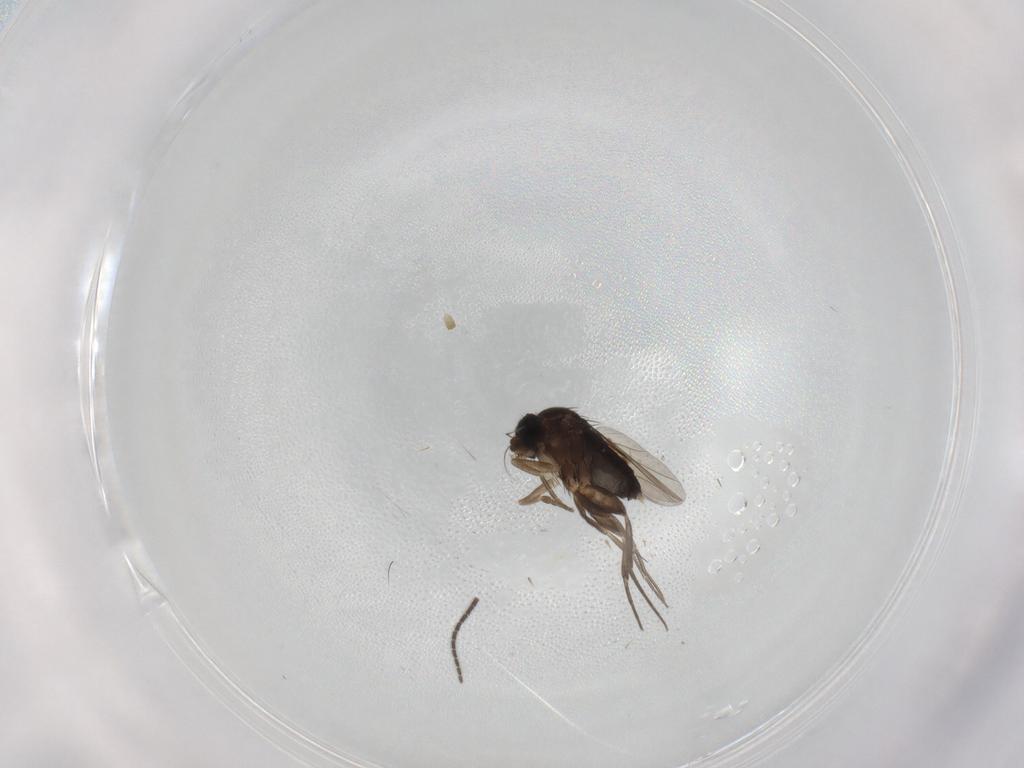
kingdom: Animalia
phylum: Arthropoda
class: Insecta
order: Diptera
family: Phoridae
